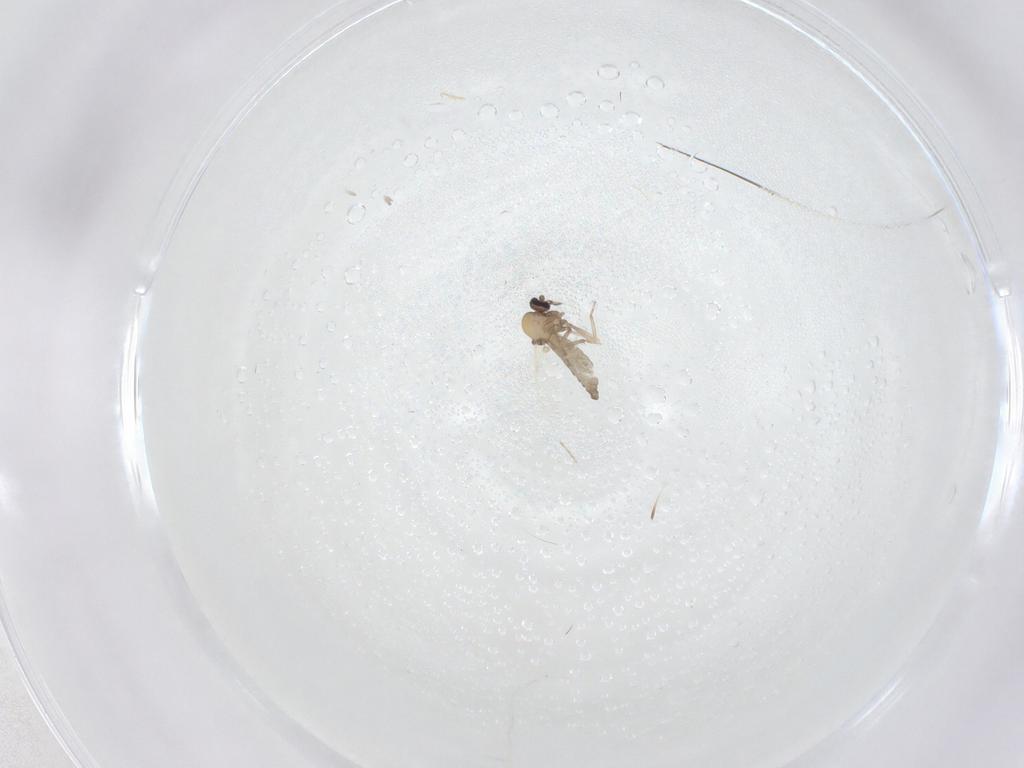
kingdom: Animalia
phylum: Arthropoda
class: Insecta
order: Diptera
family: Ceratopogonidae
